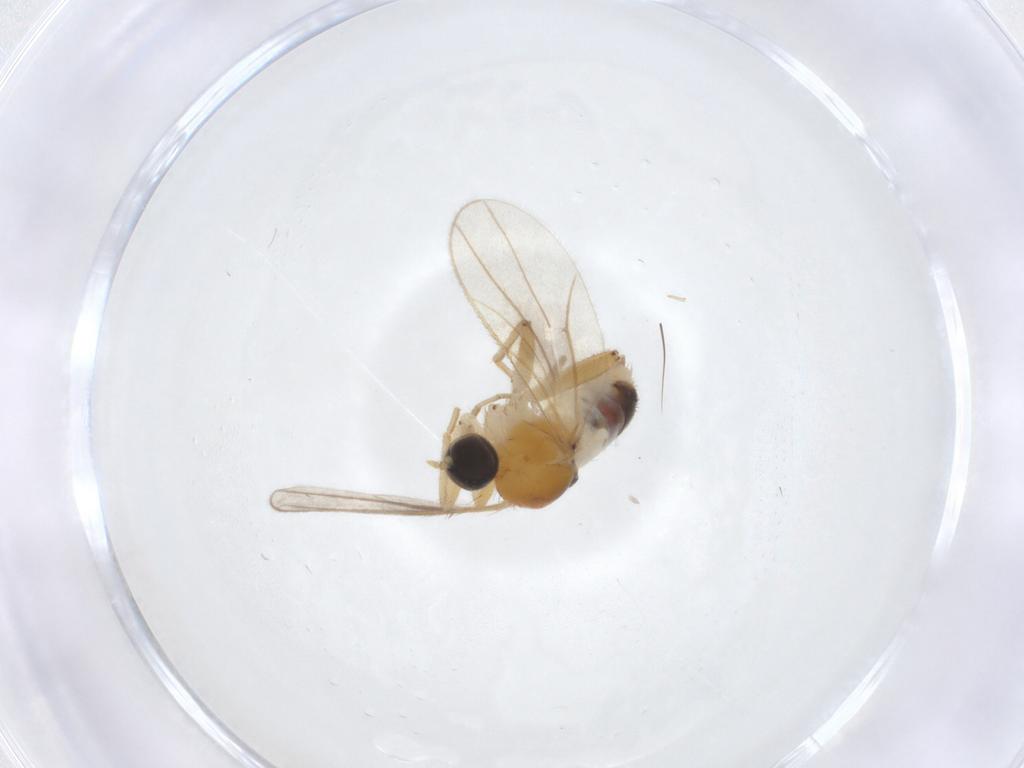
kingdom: Animalia
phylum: Arthropoda
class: Insecta
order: Diptera
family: Hybotidae
